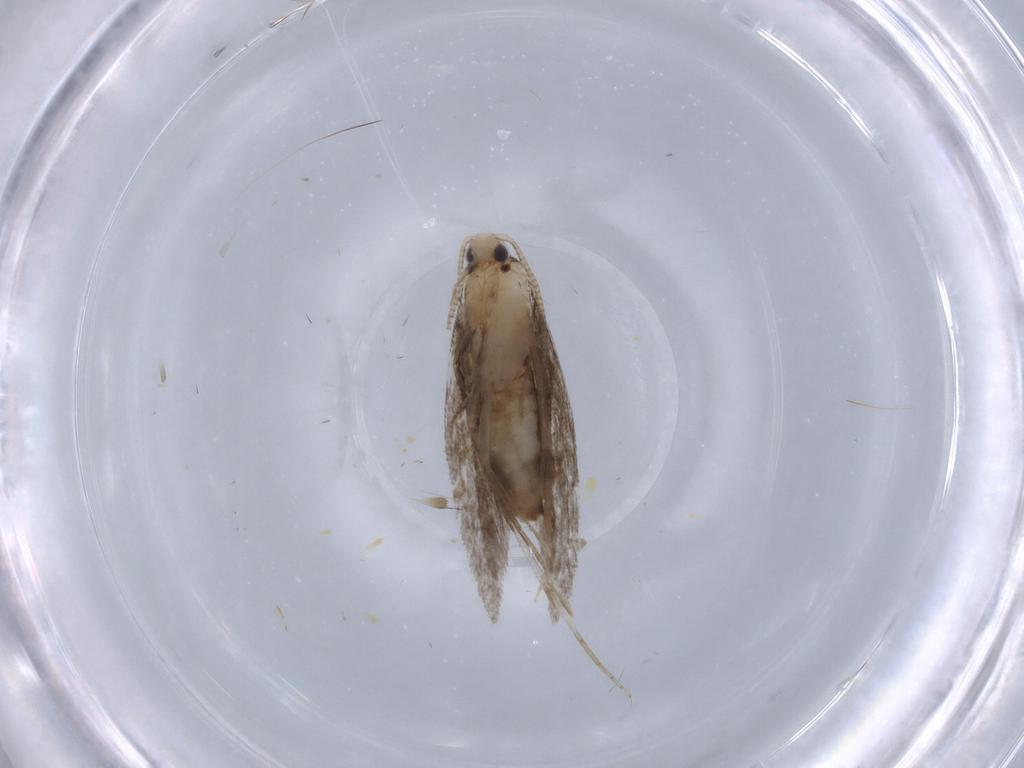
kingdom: Animalia
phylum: Arthropoda
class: Insecta
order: Lepidoptera
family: Tineidae
